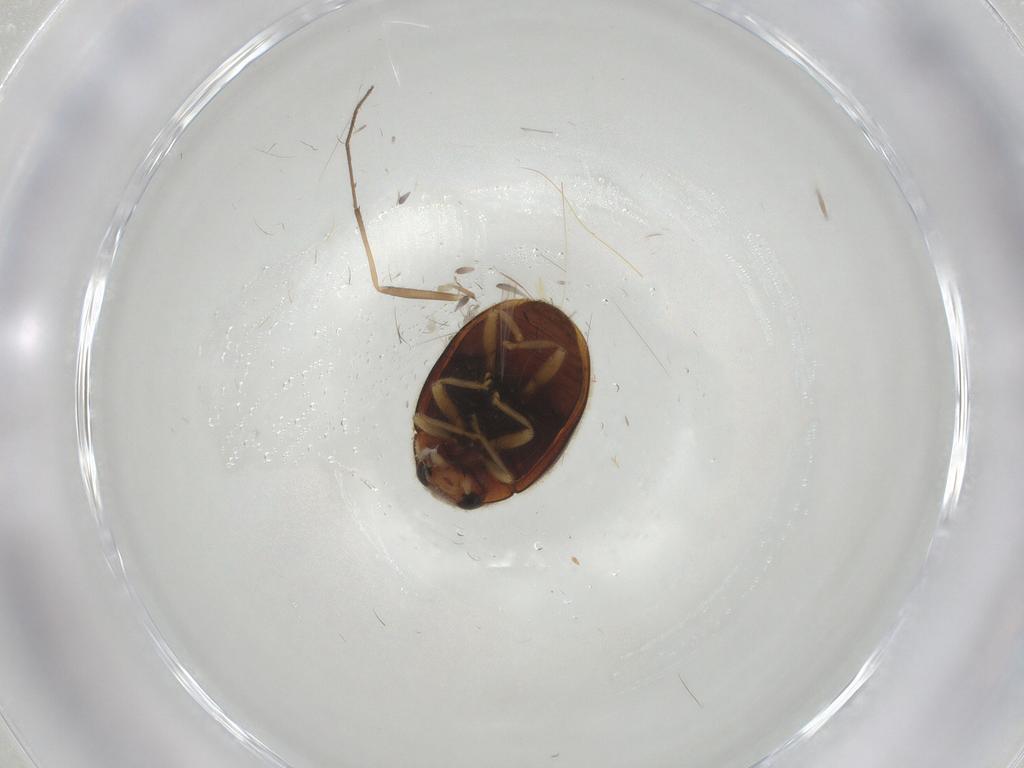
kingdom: Animalia
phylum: Arthropoda
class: Insecta
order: Coleoptera
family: Coccinellidae
